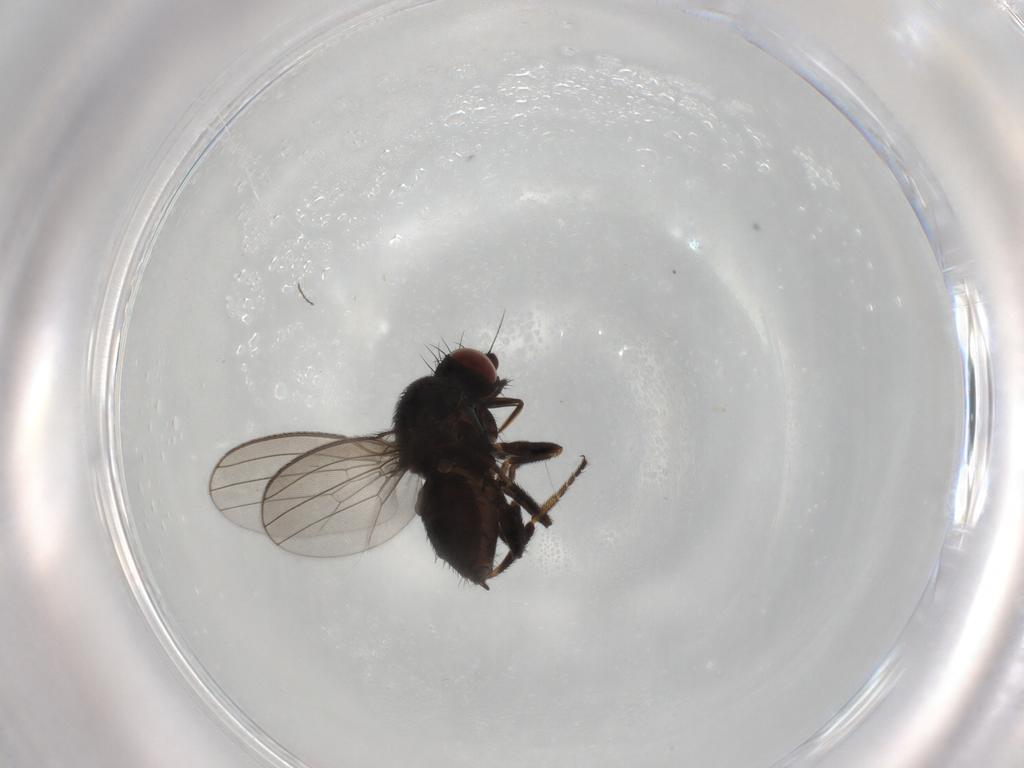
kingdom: Animalia
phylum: Arthropoda
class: Insecta
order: Diptera
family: Milichiidae
